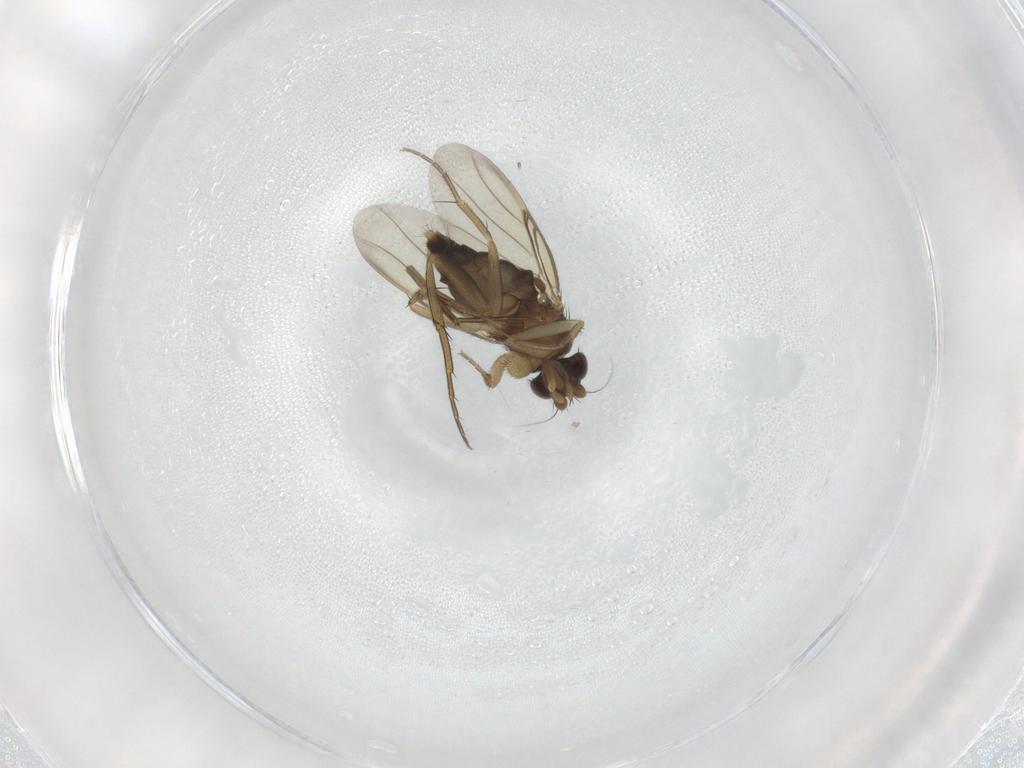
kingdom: Animalia
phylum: Arthropoda
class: Insecta
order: Diptera
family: Phoridae
